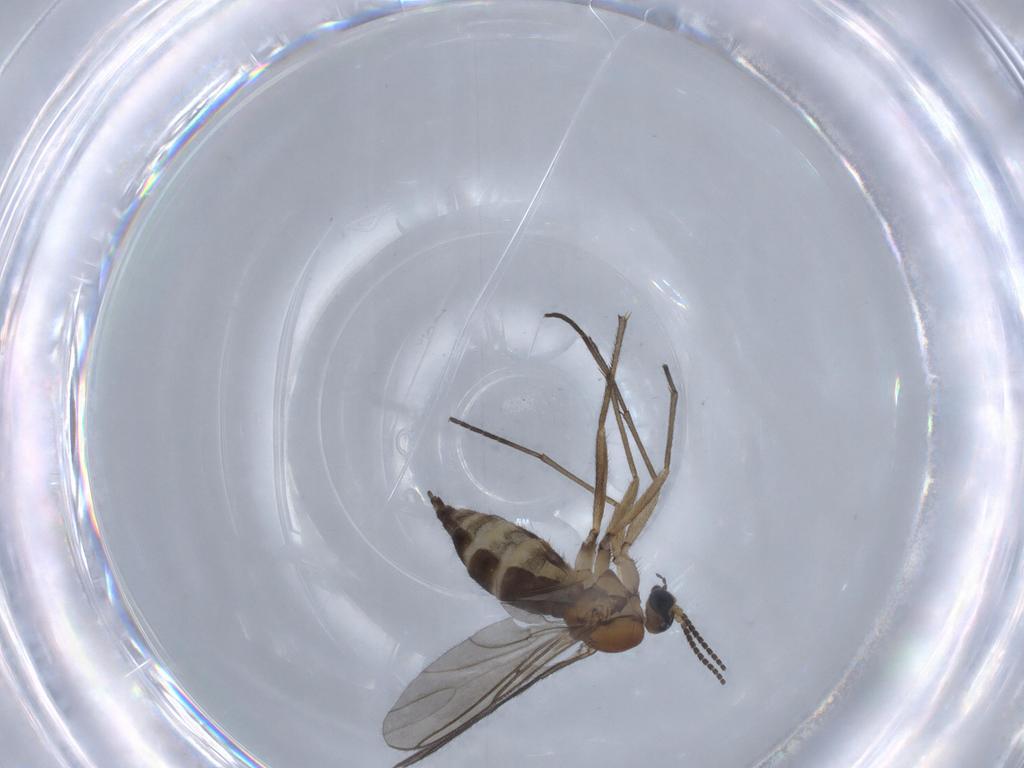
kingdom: Animalia
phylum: Arthropoda
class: Insecta
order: Diptera
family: Sciaridae
